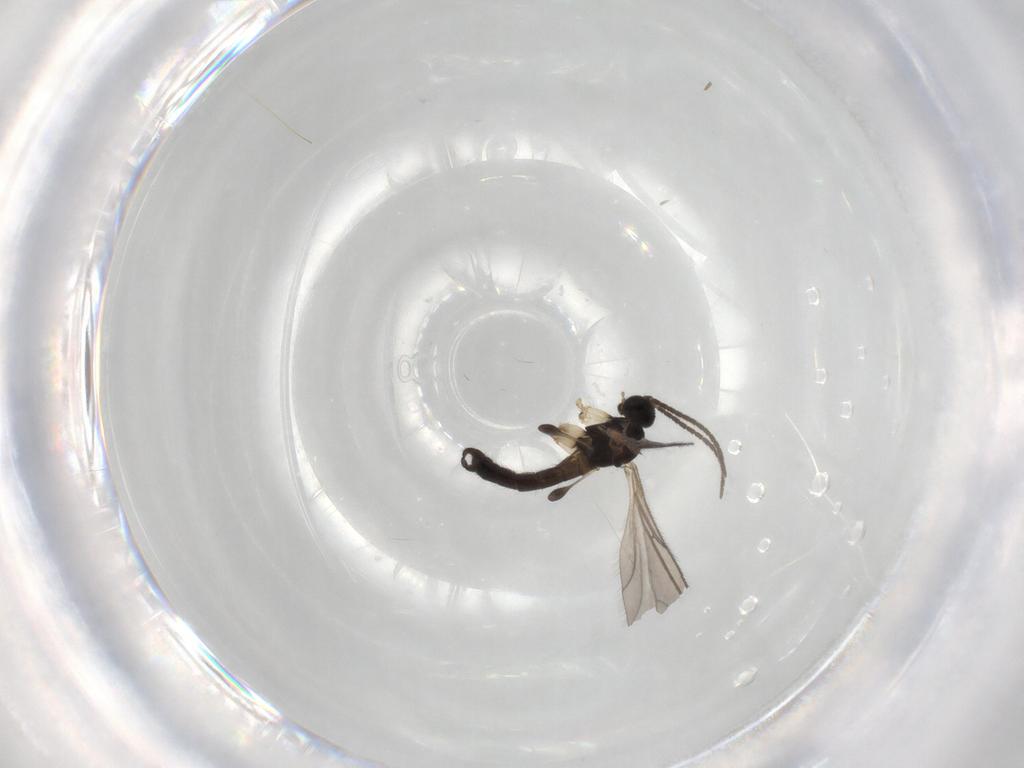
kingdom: Animalia
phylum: Arthropoda
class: Insecta
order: Diptera
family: Sciaridae
